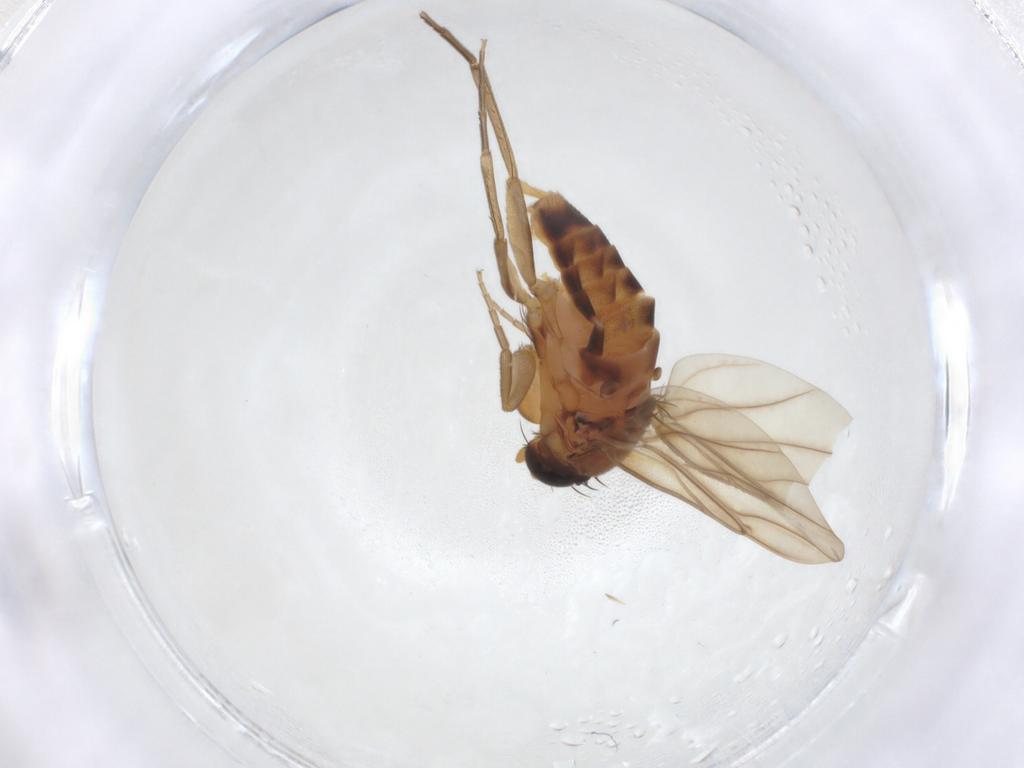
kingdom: Animalia
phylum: Arthropoda
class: Insecta
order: Diptera
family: Phoridae
